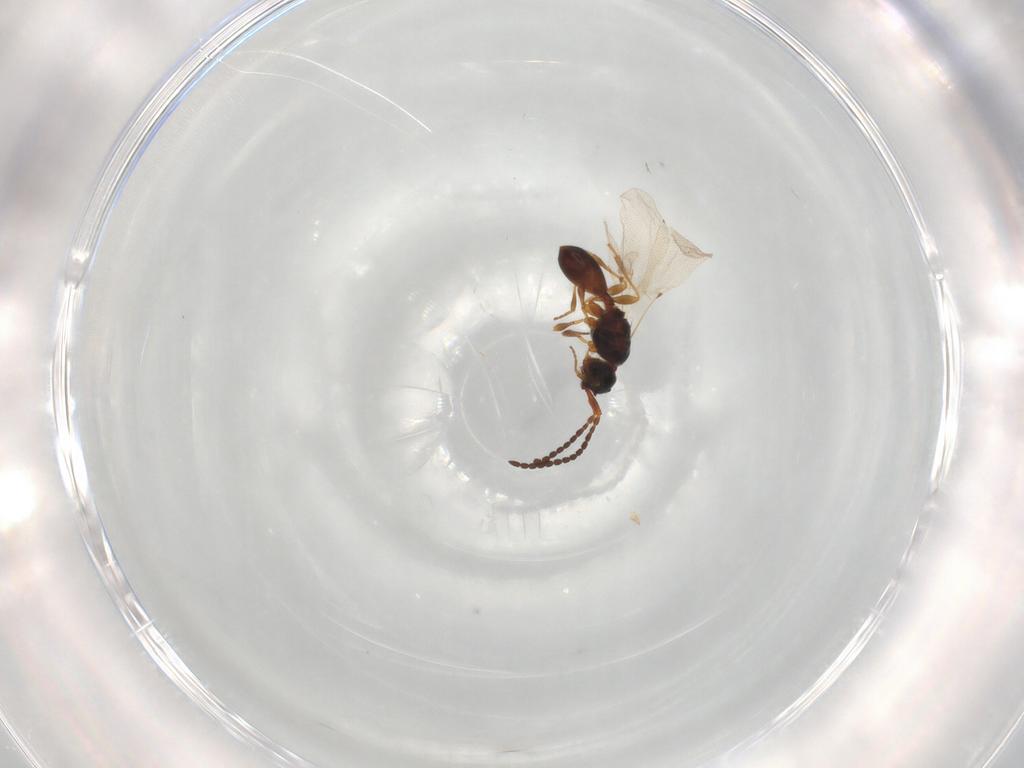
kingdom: Animalia
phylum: Arthropoda
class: Insecta
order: Hymenoptera
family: Diapriidae
